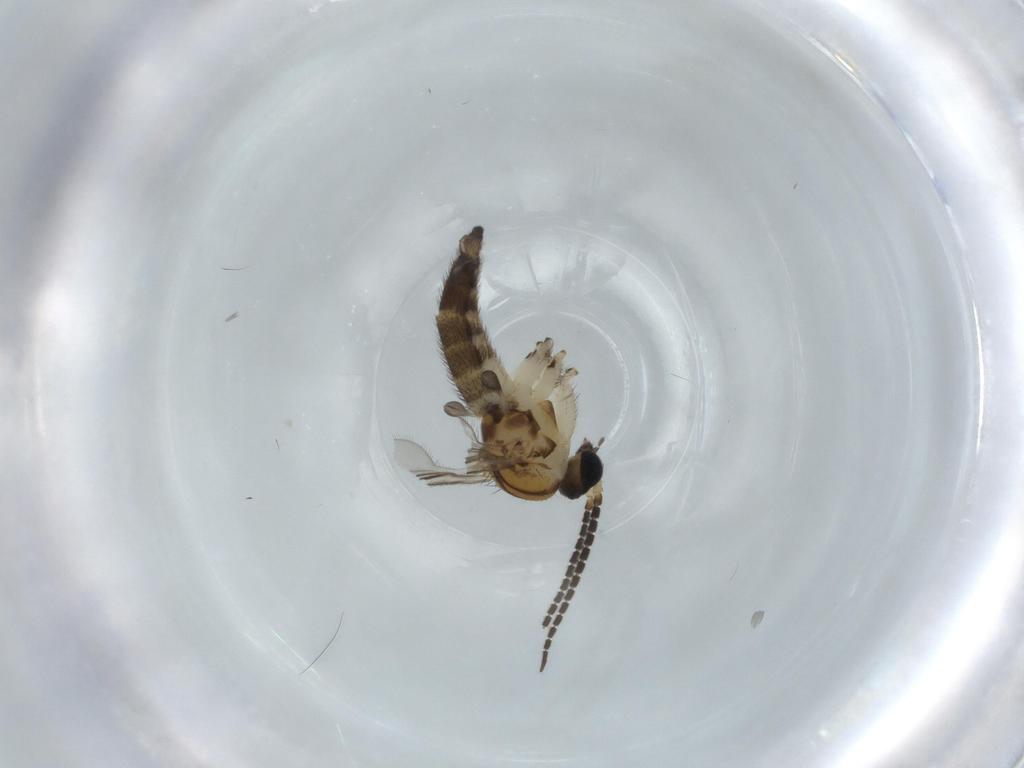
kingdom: Animalia
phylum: Arthropoda
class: Insecta
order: Diptera
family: Sciaridae
